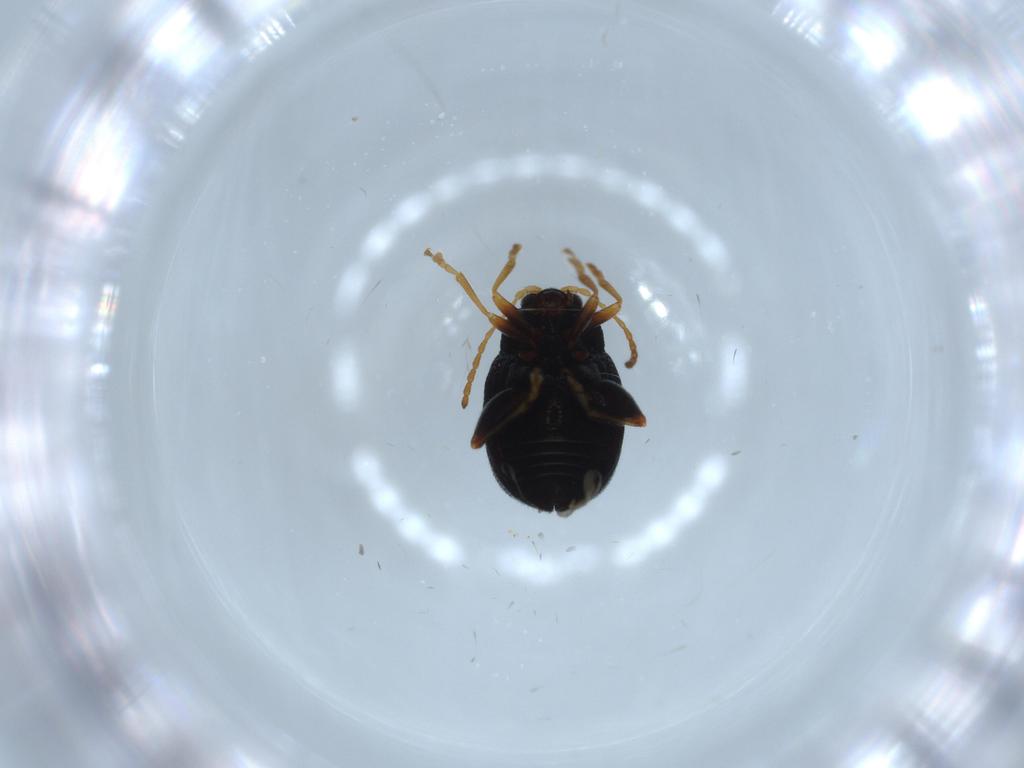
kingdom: Animalia
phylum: Arthropoda
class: Insecta
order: Coleoptera
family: Chrysomelidae
